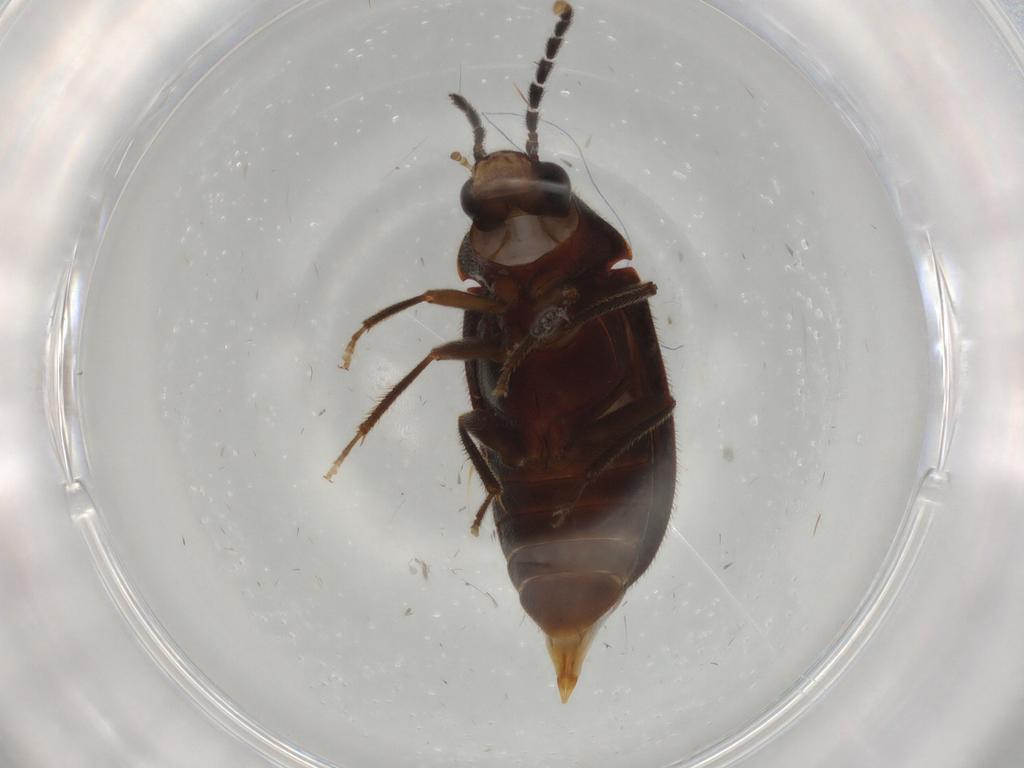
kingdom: Animalia
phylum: Arthropoda
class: Insecta
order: Coleoptera
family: Ptilodactylidae
